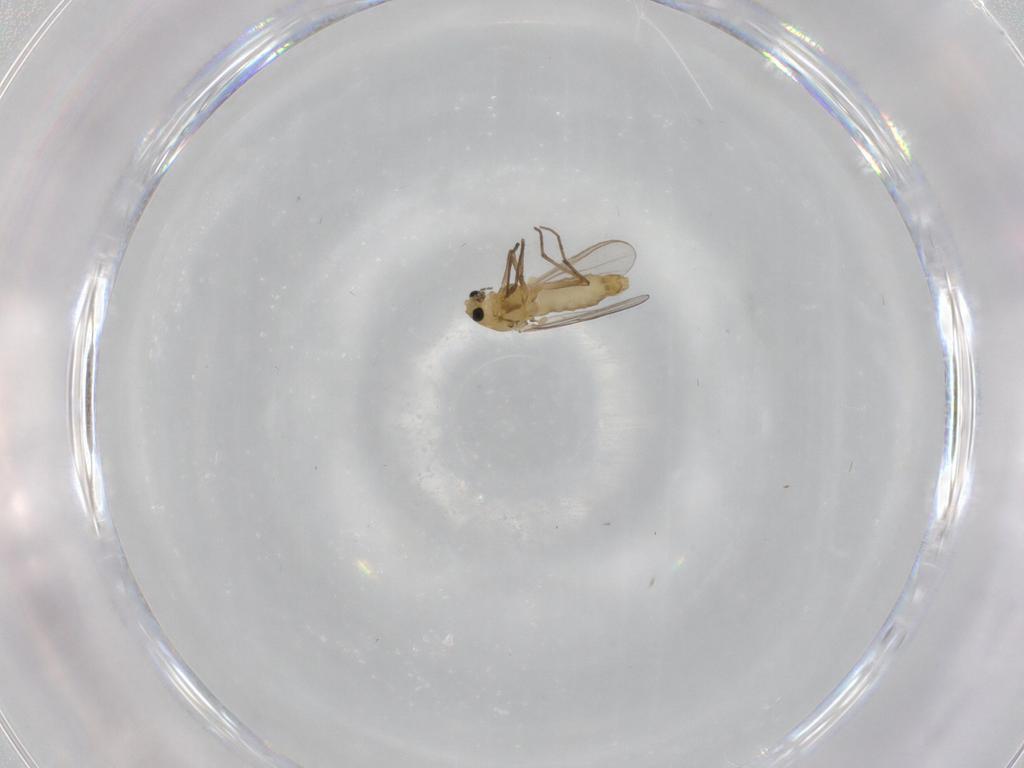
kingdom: Animalia
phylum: Arthropoda
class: Insecta
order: Diptera
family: Chironomidae
